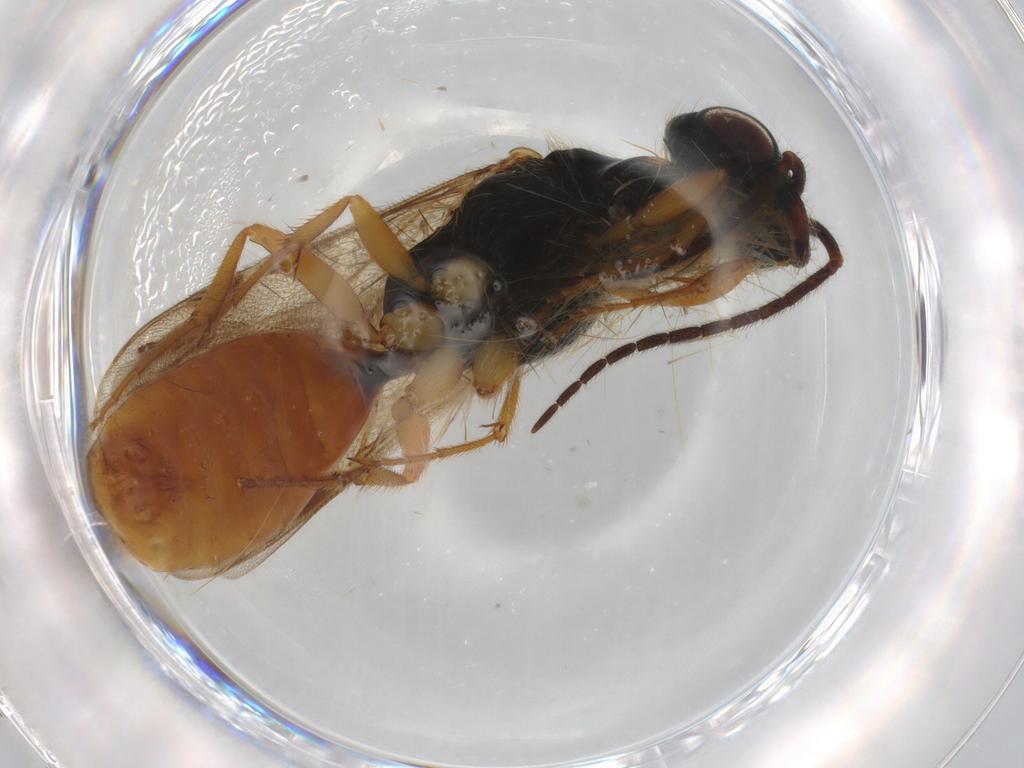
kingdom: Animalia
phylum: Arthropoda
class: Insecta
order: Hymenoptera
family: Bethylidae
